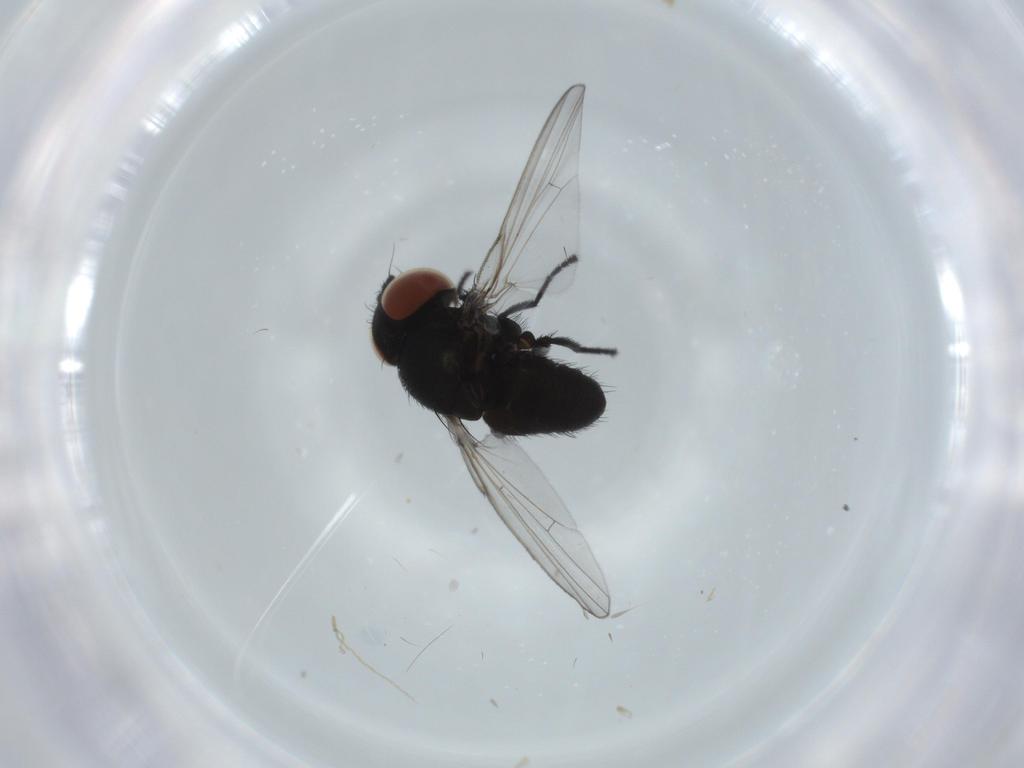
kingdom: Animalia
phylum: Arthropoda
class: Insecta
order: Diptera
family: Milichiidae
